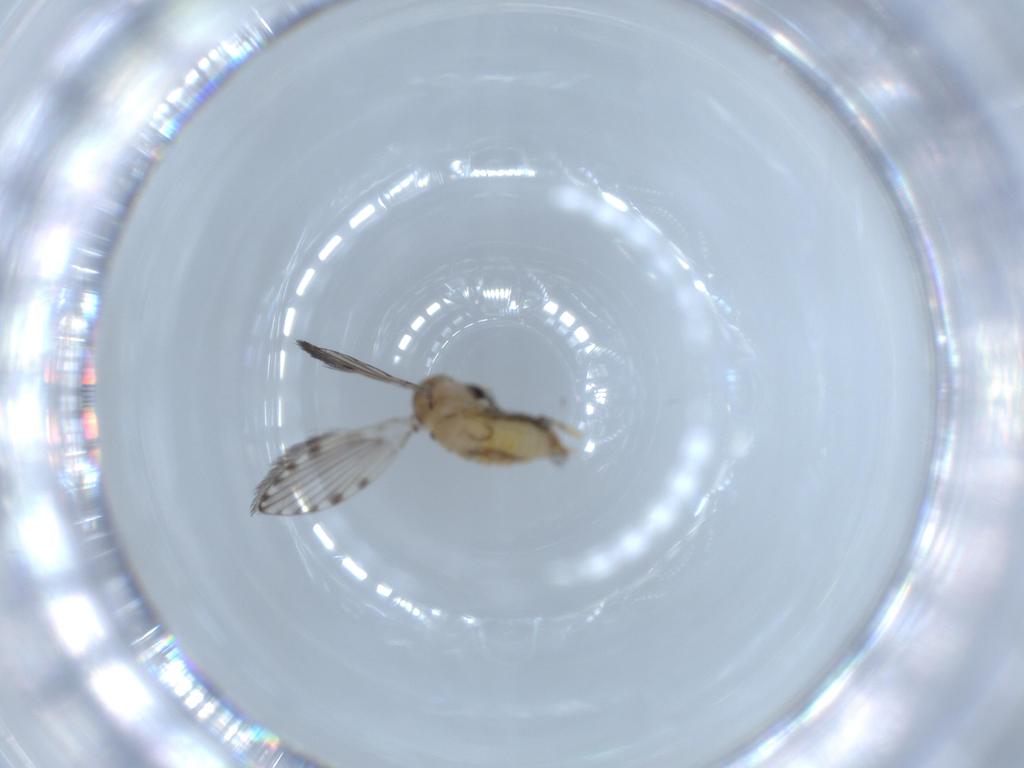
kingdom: Animalia
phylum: Arthropoda
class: Insecta
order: Diptera
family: Psychodidae
